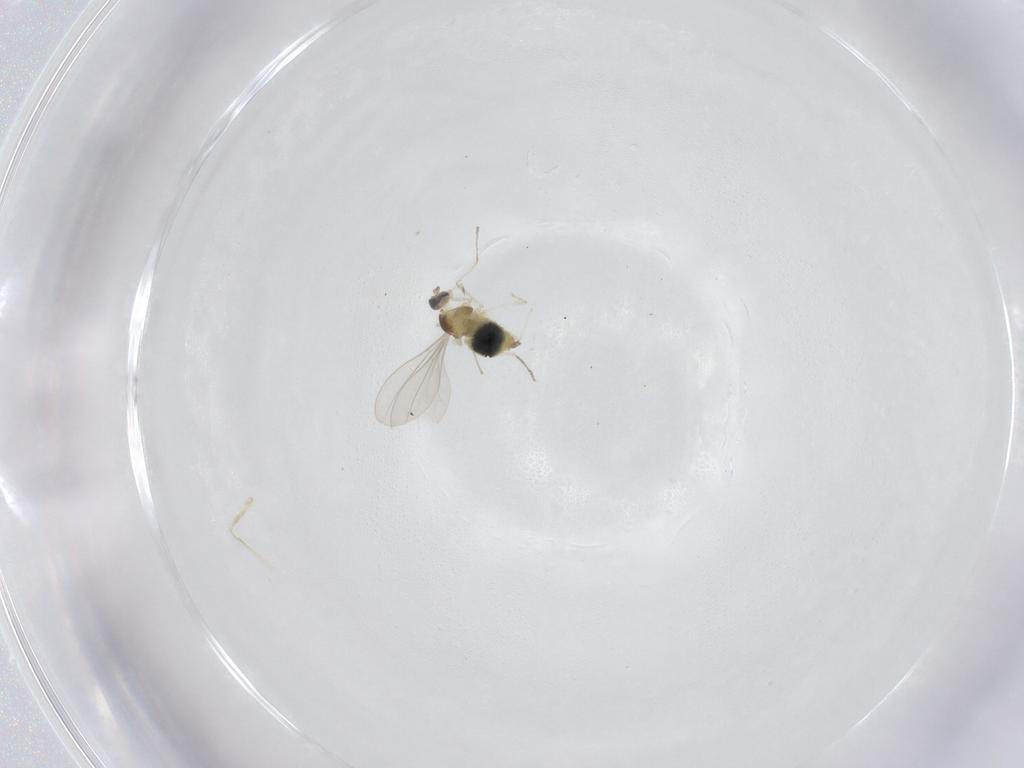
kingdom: Animalia
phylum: Arthropoda
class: Insecta
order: Diptera
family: Cecidomyiidae
